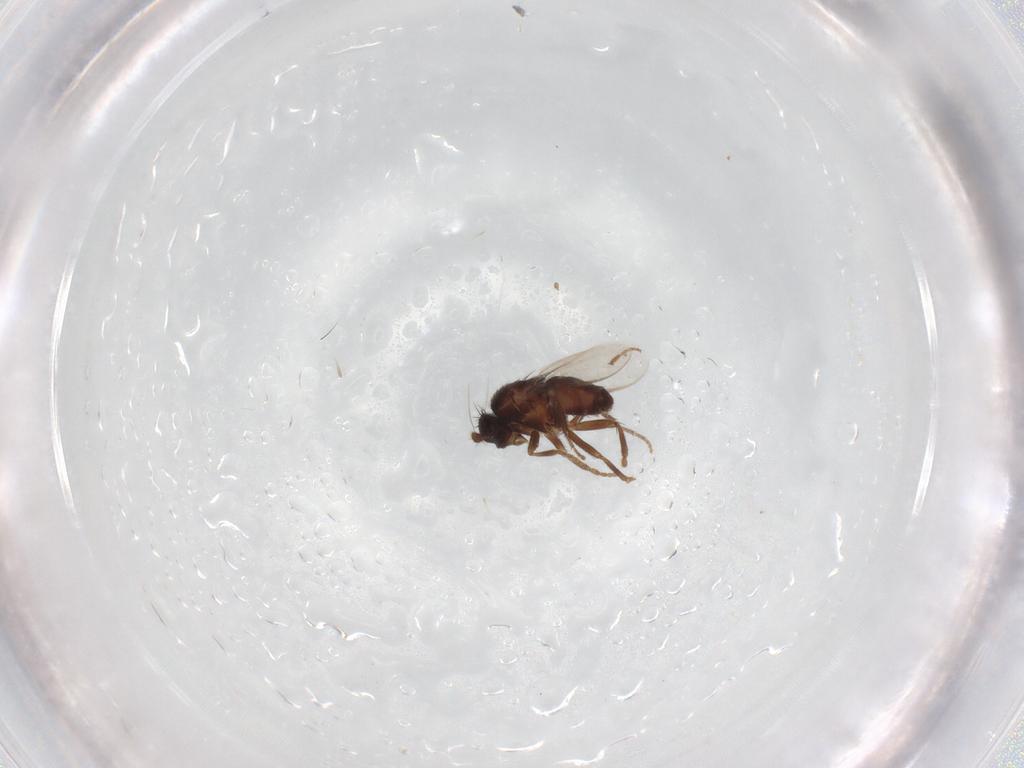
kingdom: Animalia
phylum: Arthropoda
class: Insecta
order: Diptera
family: Sphaeroceridae
